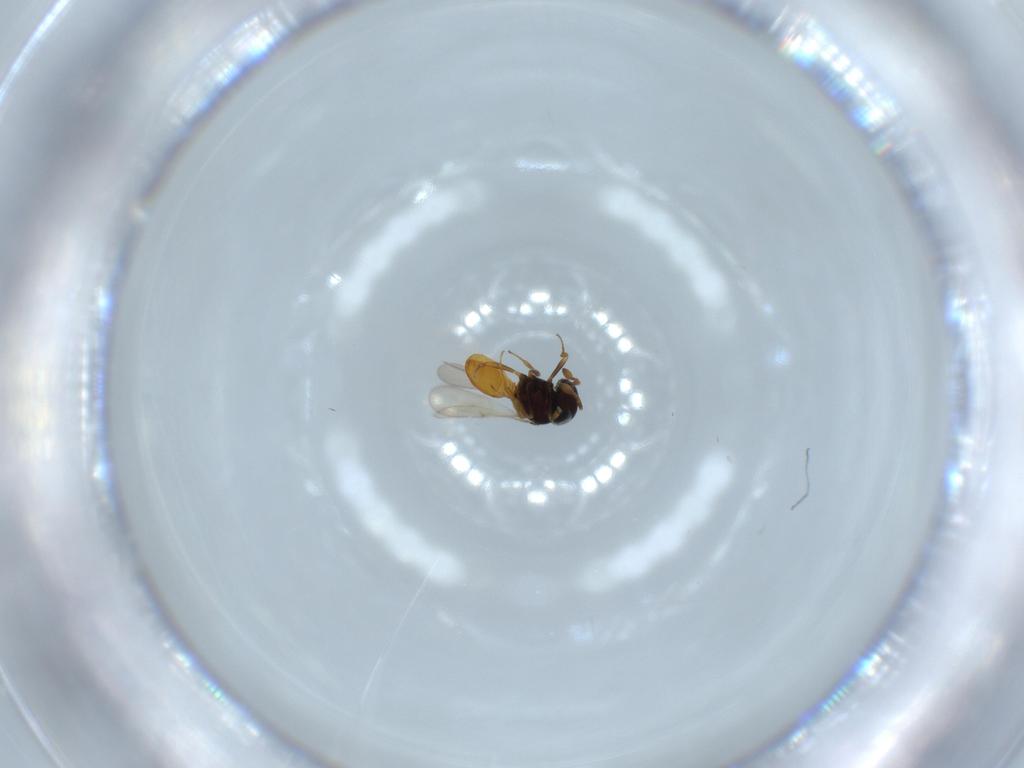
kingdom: Animalia
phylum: Arthropoda
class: Insecta
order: Hymenoptera
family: Scelionidae
